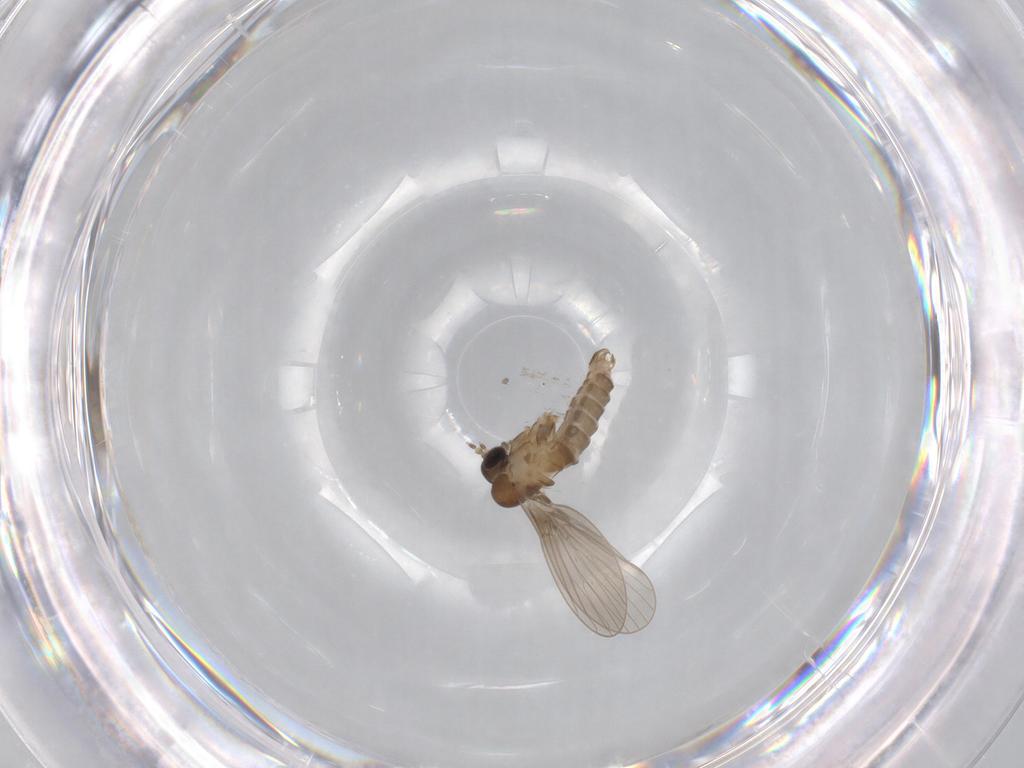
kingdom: Animalia
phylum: Arthropoda
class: Insecta
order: Diptera
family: Psychodidae
